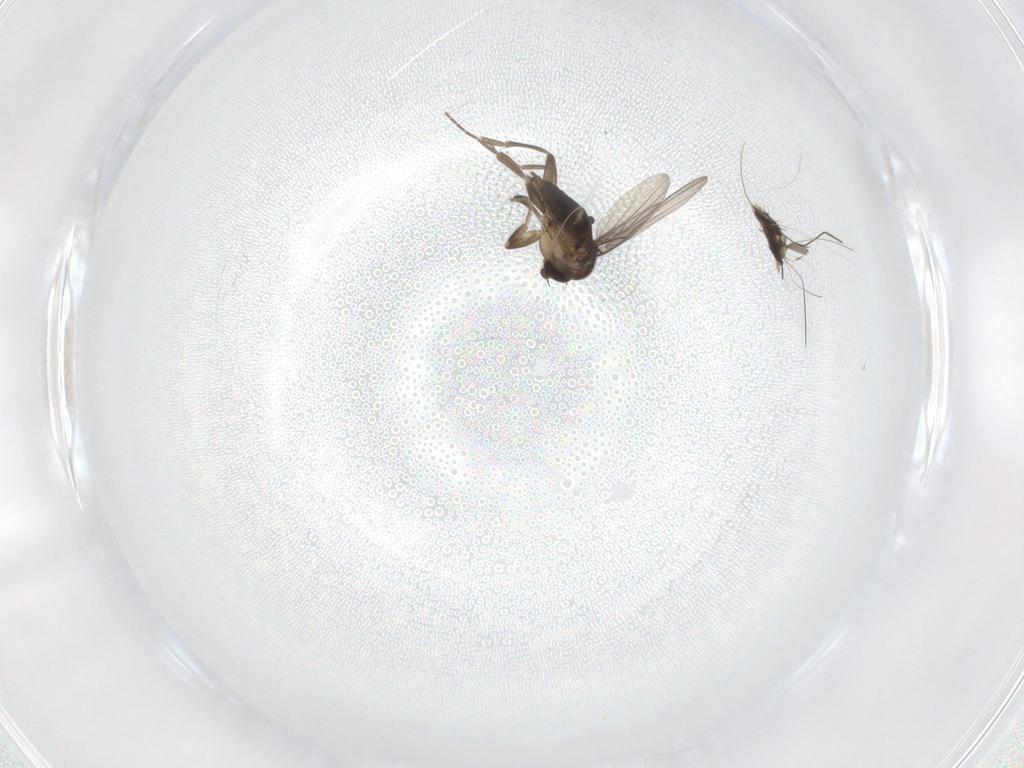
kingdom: Animalia
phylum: Arthropoda
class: Insecta
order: Diptera
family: Chironomidae
